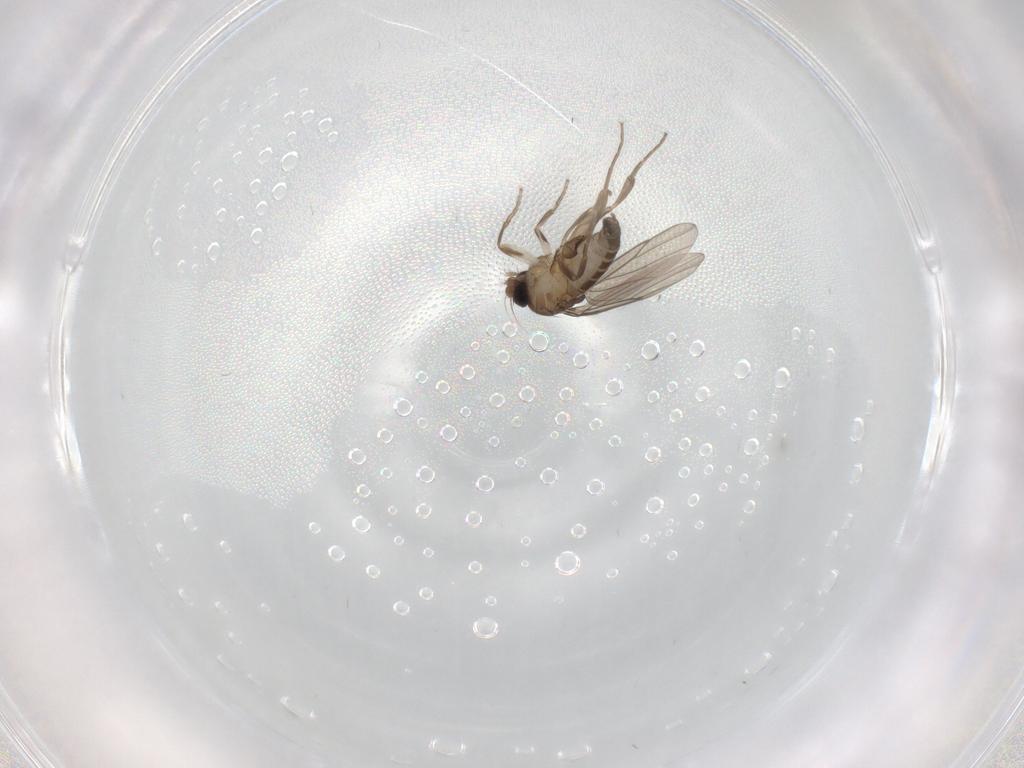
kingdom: Animalia
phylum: Arthropoda
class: Insecta
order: Diptera
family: Phoridae
